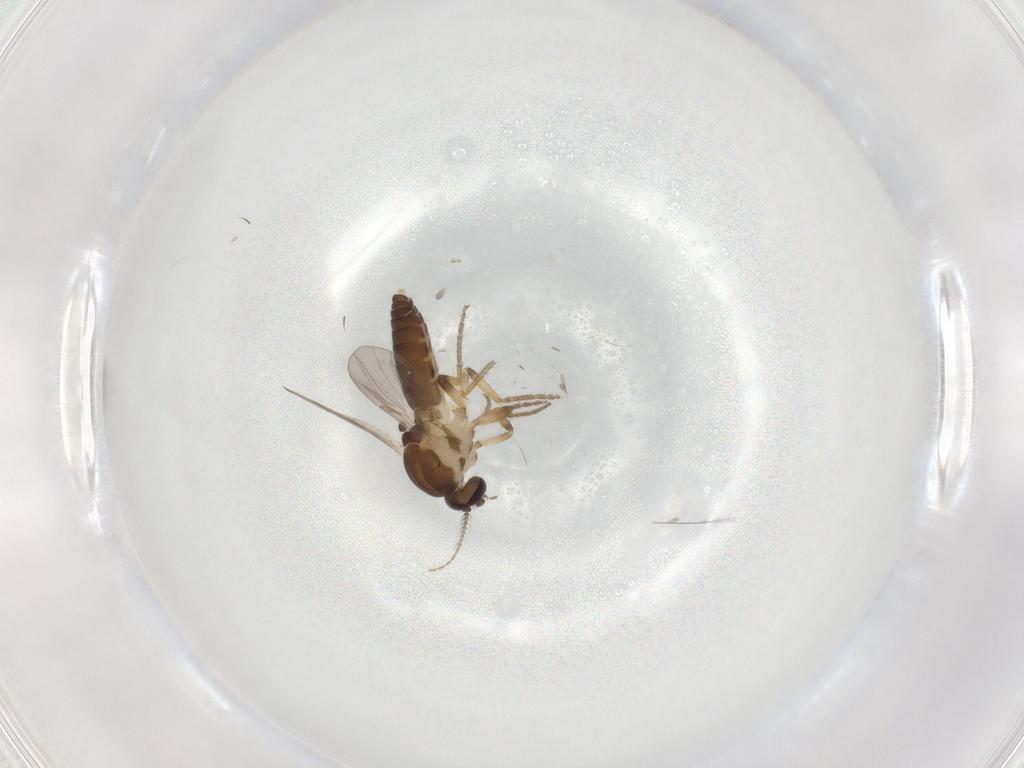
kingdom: Animalia
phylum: Arthropoda
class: Insecta
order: Diptera
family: Ceratopogonidae
